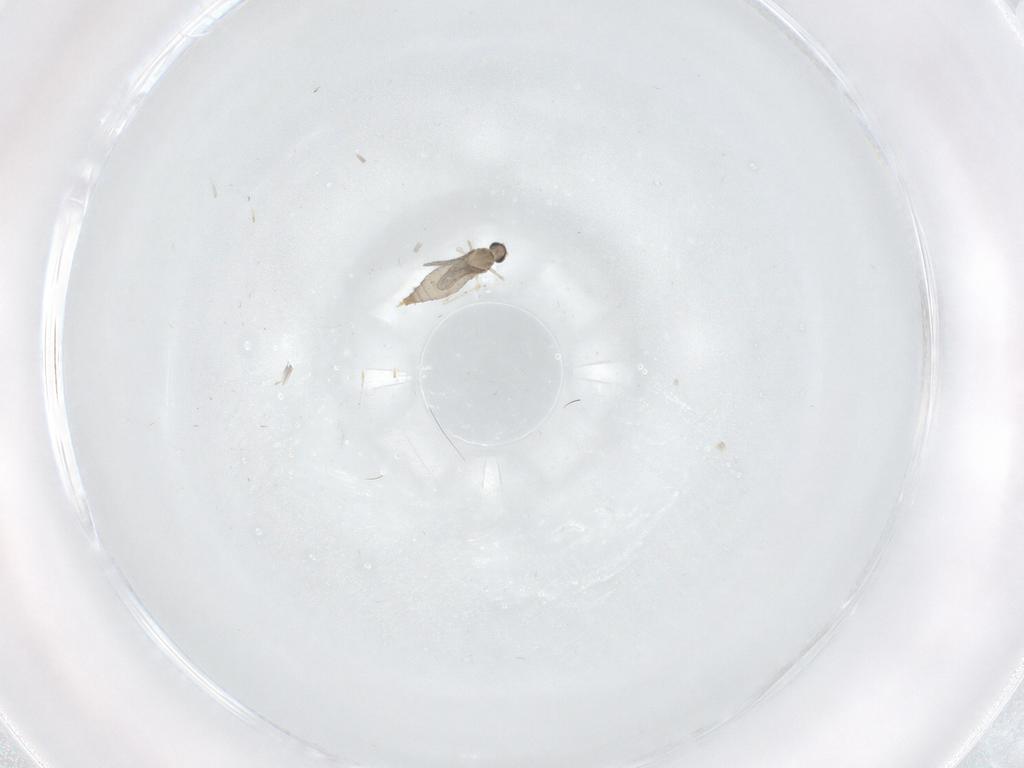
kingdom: Animalia
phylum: Arthropoda
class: Insecta
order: Diptera
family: Cecidomyiidae
